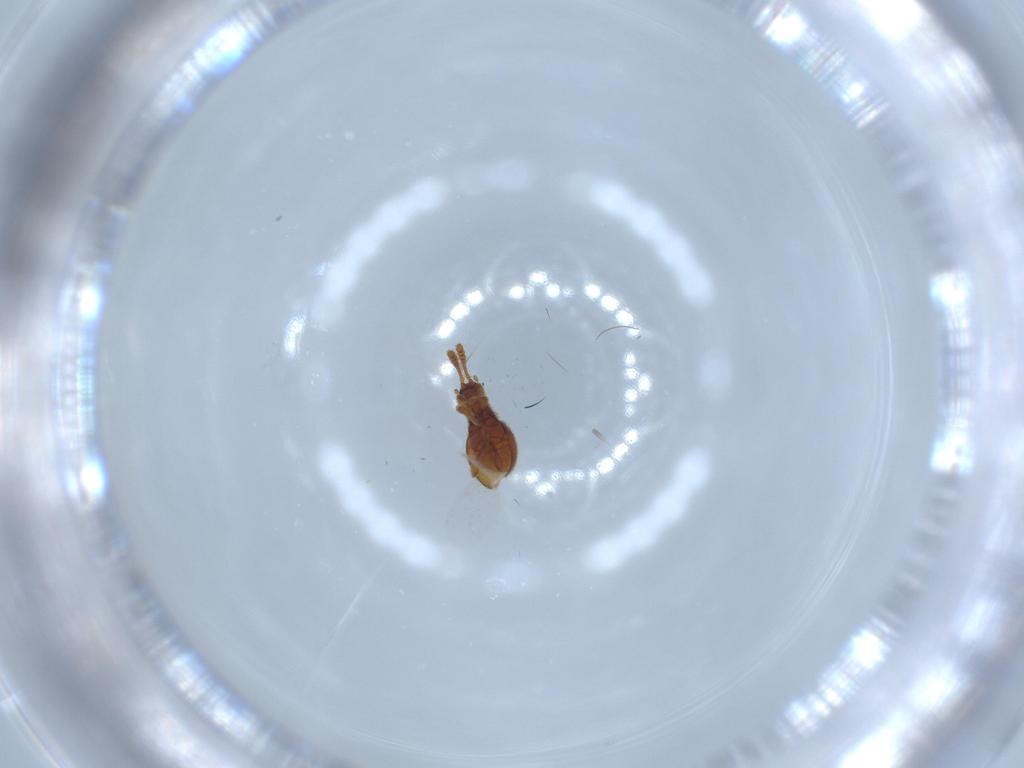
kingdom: Animalia
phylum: Arthropoda
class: Insecta
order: Coleoptera
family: Staphylinidae
